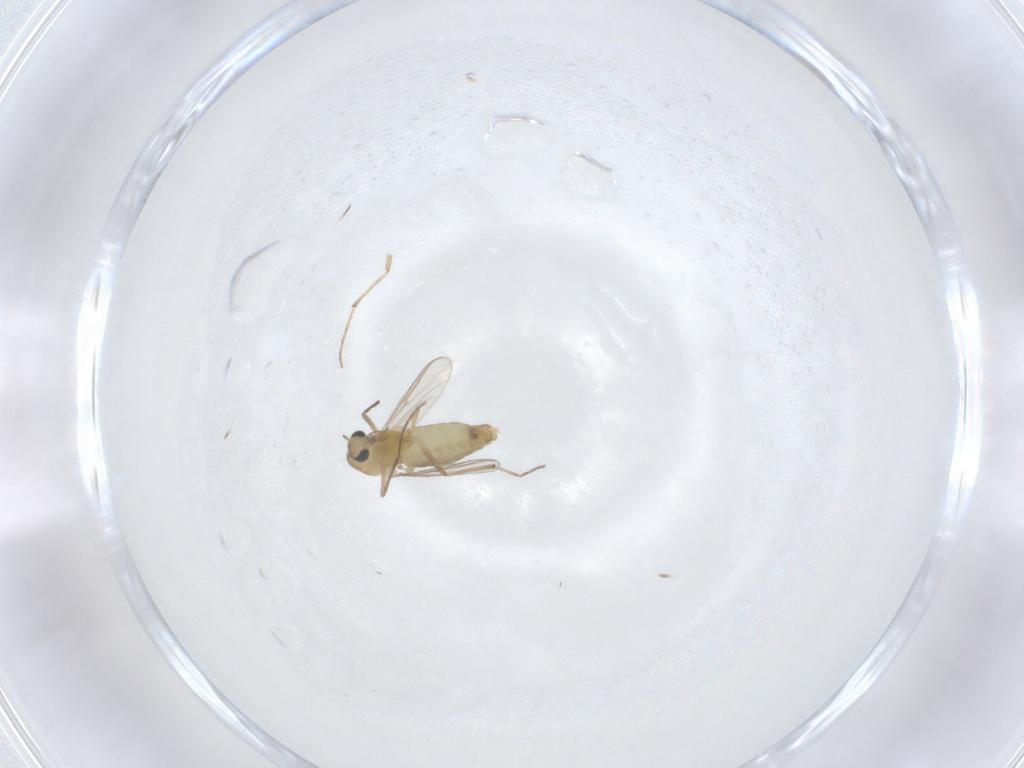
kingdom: Animalia
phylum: Arthropoda
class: Insecta
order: Diptera
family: Chironomidae
